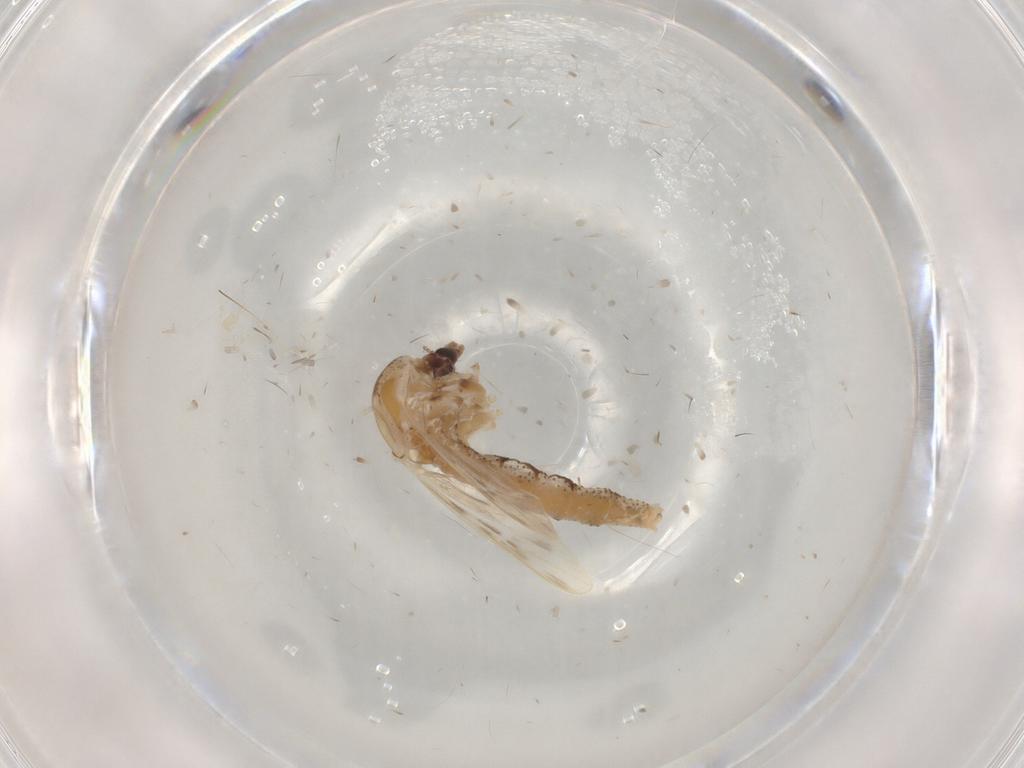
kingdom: Animalia
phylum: Arthropoda
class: Insecta
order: Diptera
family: Chaoboridae
